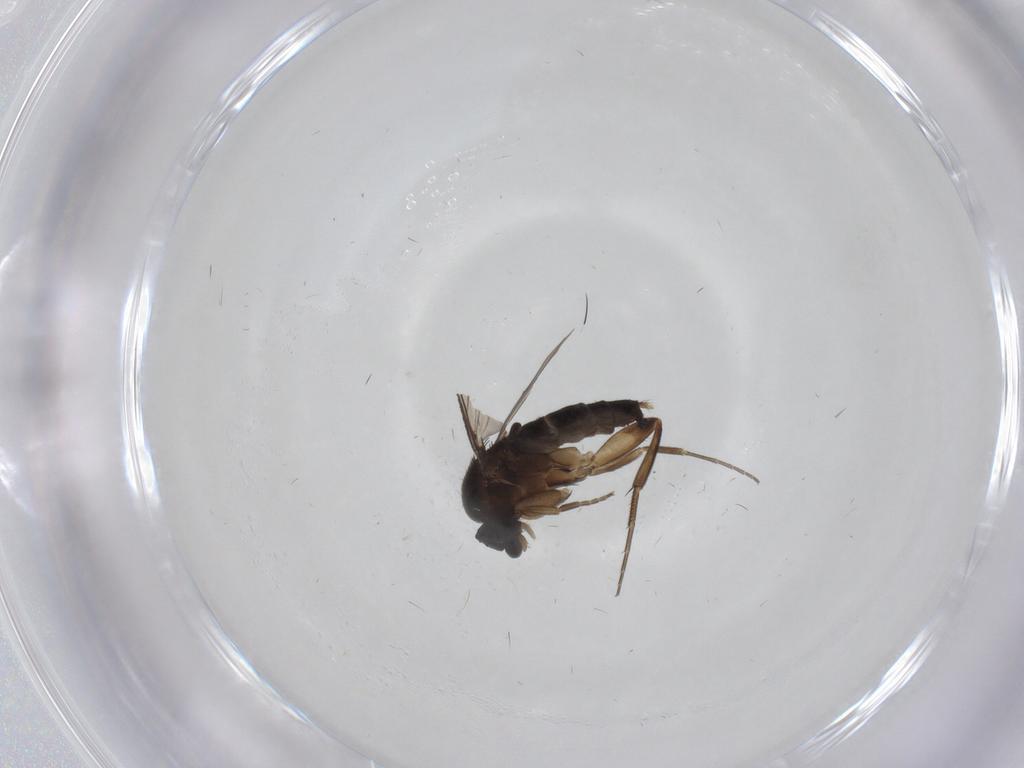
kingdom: Animalia
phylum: Arthropoda
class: Insecta
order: Diptera
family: Phoridae
